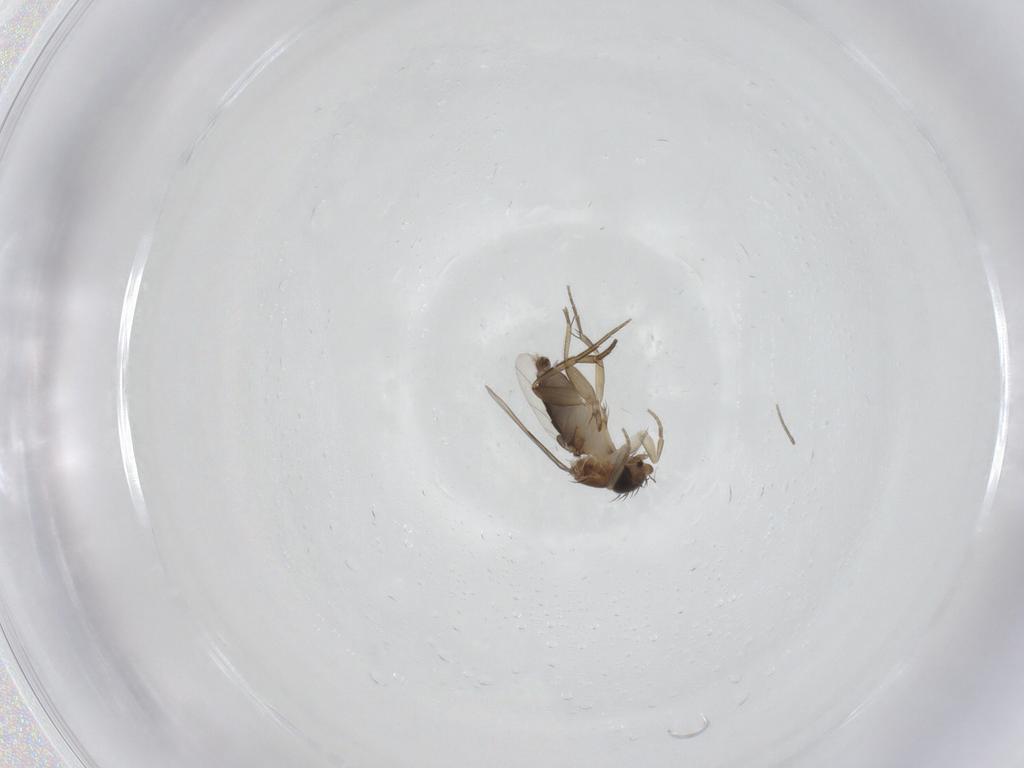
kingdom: Animalia
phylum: Arthropoda
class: Insecta
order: Diptera
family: Phoridae
